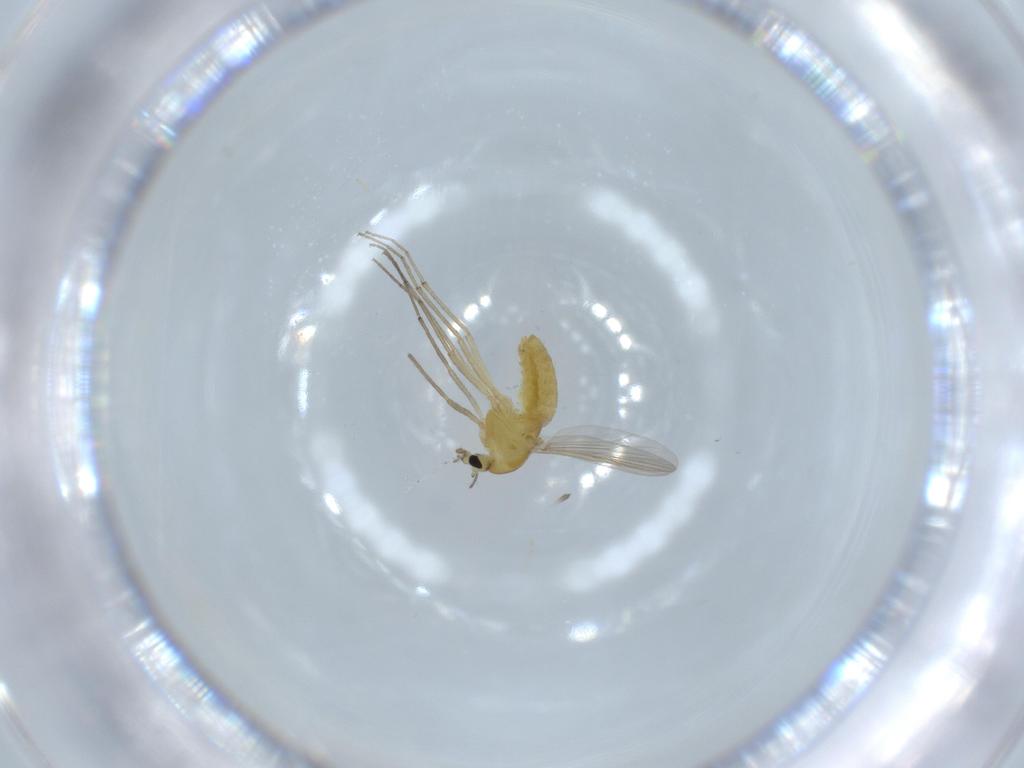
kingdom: Animalia
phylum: Arthropoda
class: Insecta
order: Diptera
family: Chironomidae
